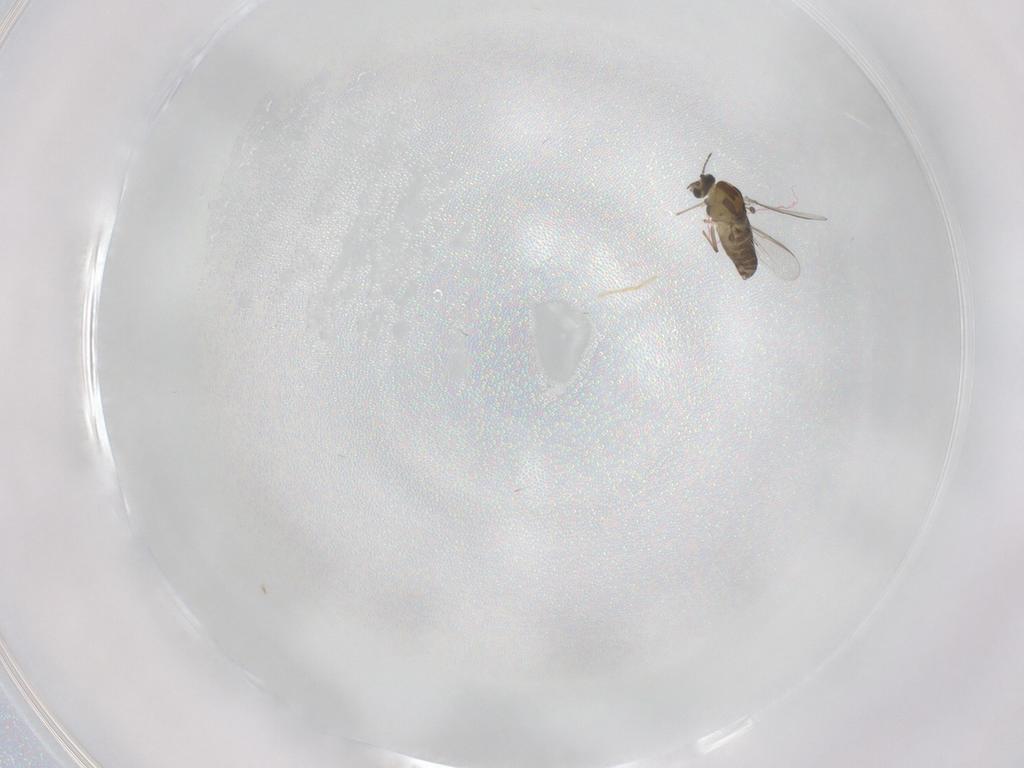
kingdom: Animalia
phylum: Arthropoda
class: Insecta
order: Diptera
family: Chironomidae
